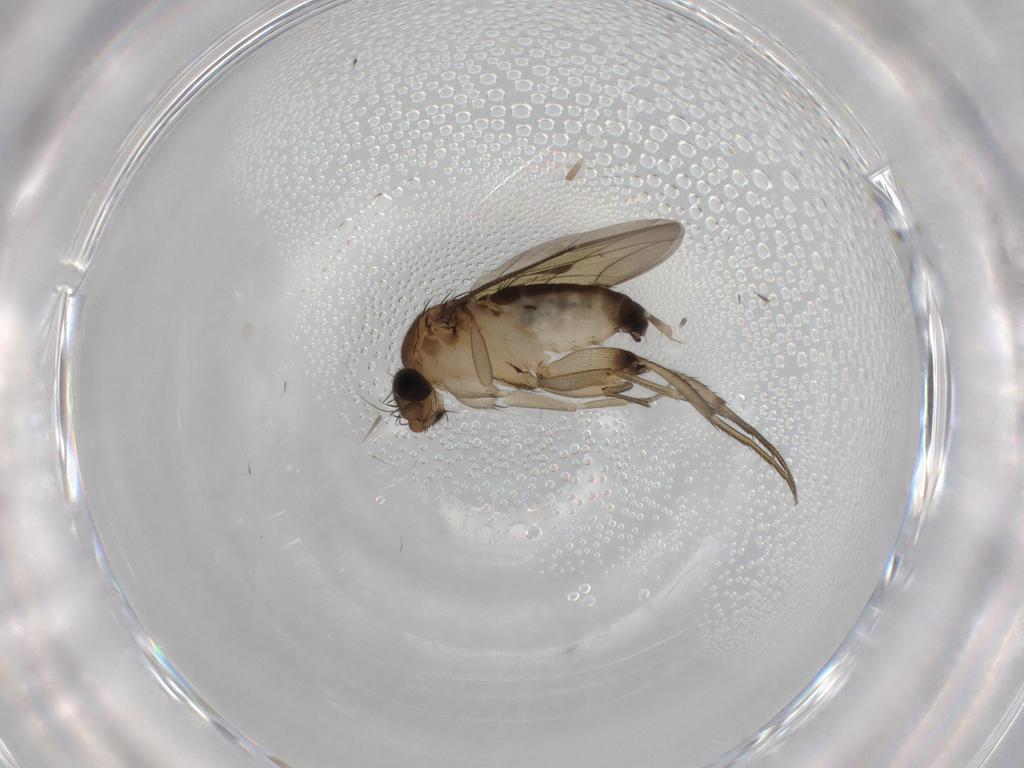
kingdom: Animalia
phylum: Arthropoda
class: Insecta
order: Diptera
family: Phoridae
